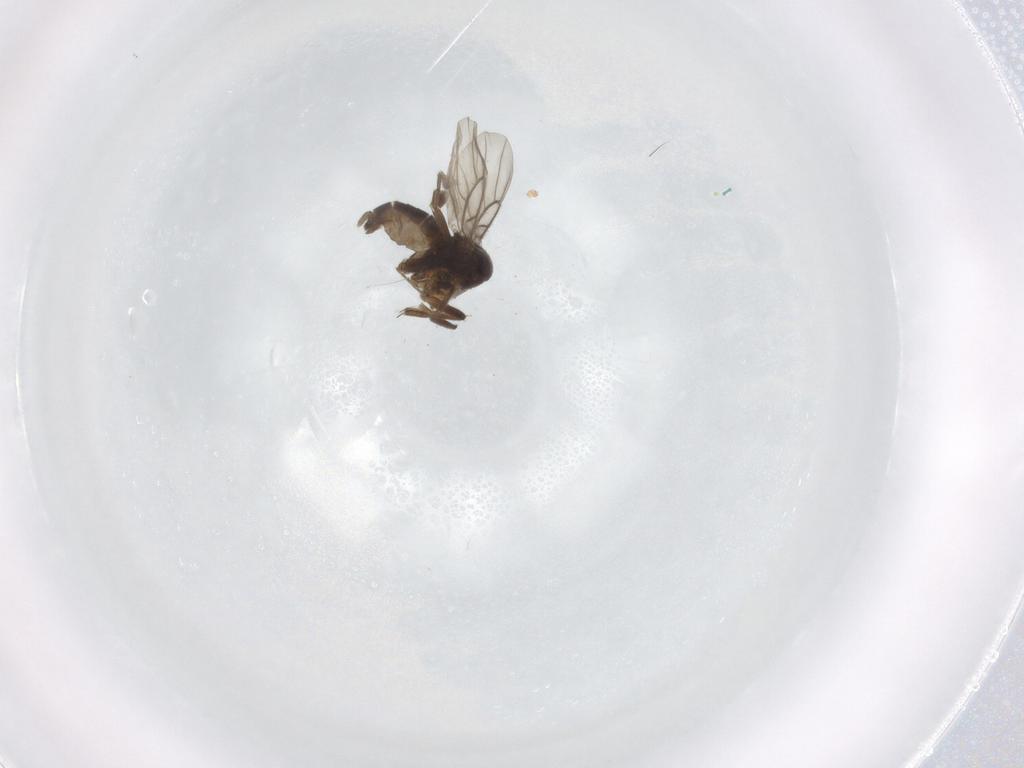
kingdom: Animalia
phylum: Arthropoda
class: Insecta
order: Diptera
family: Phoridae
